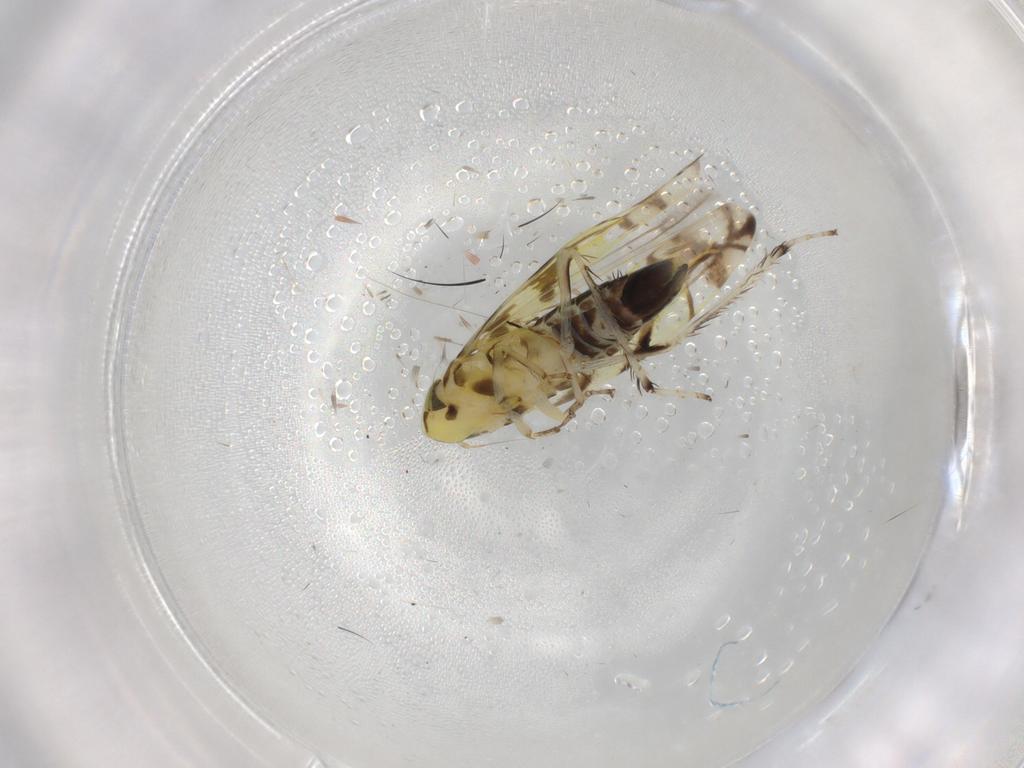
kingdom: Animalia
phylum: Arthropoda
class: Insecta
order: Hemiptera
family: Cicadellidae
